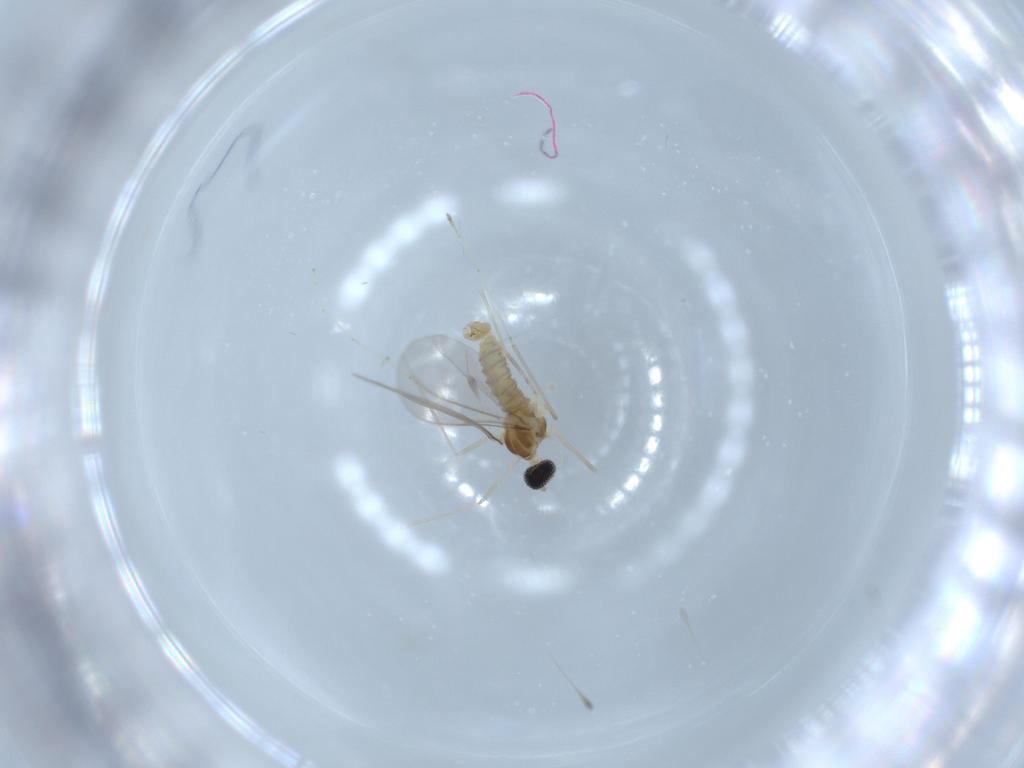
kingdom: Animalia
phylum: Arthropoda
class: Insecta
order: Diptera
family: Cecidomyiidae
